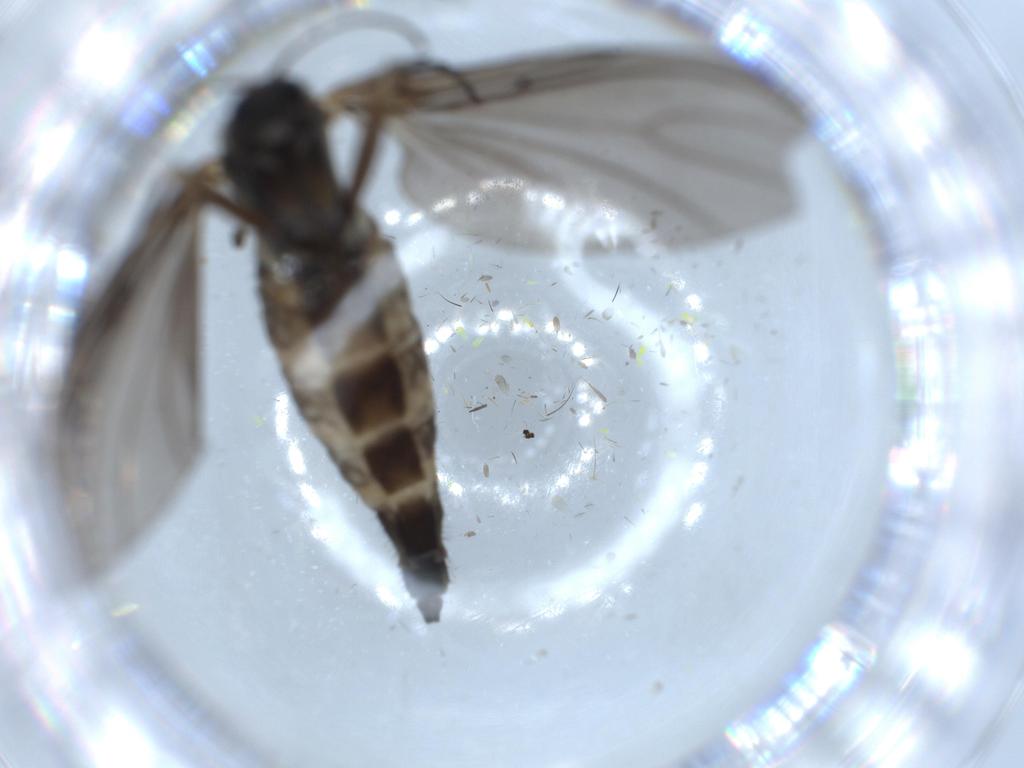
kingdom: Animalia
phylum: Arthropoda
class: Insecta
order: Diptera
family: Sciaridae
